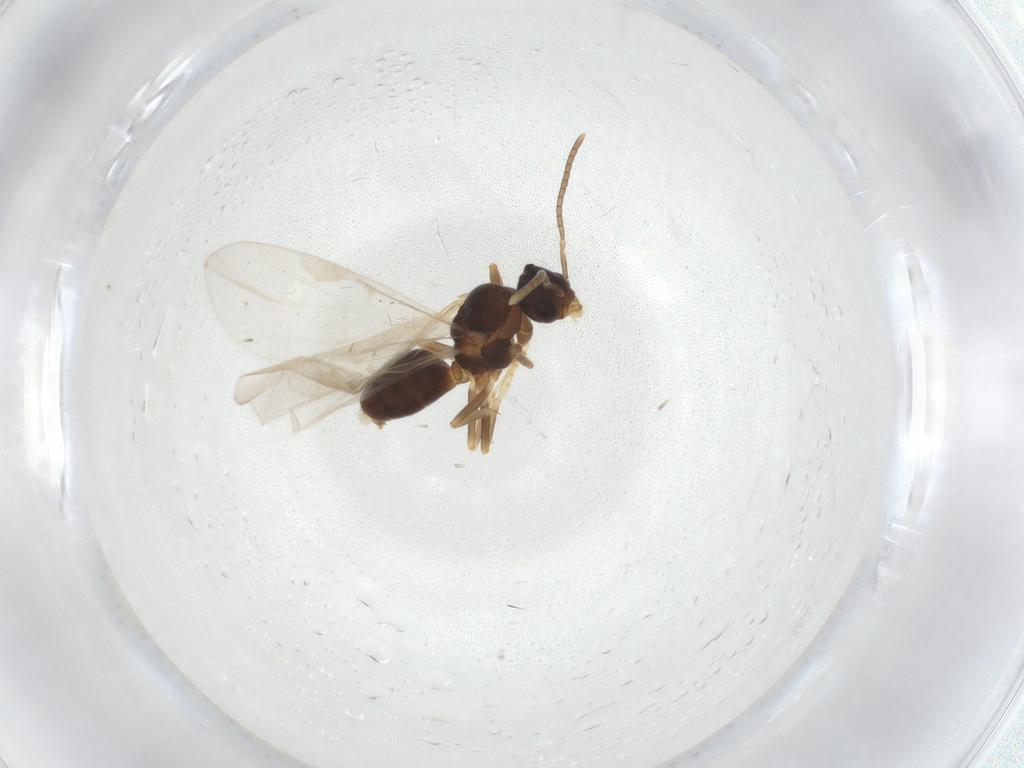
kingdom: Animalia
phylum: Arthropoda
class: Insecta
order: Hymenoptera
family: Formicidae
